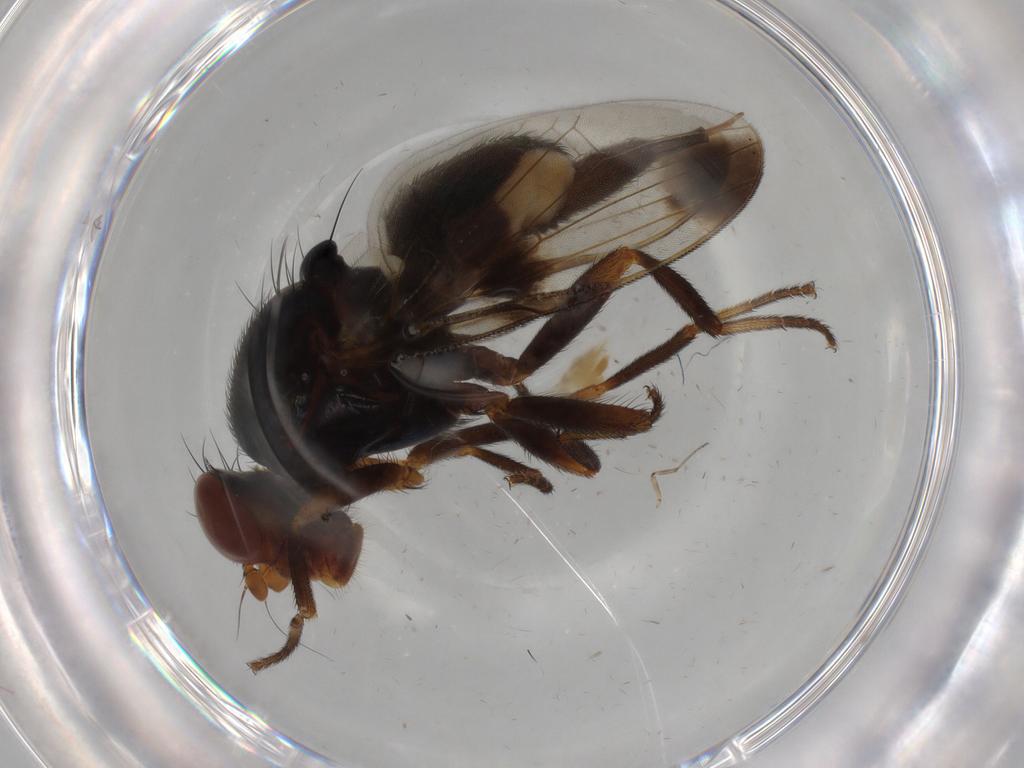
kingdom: Animalia
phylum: Arthropoda
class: Insecta
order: Diptera
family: Ulidiidae
